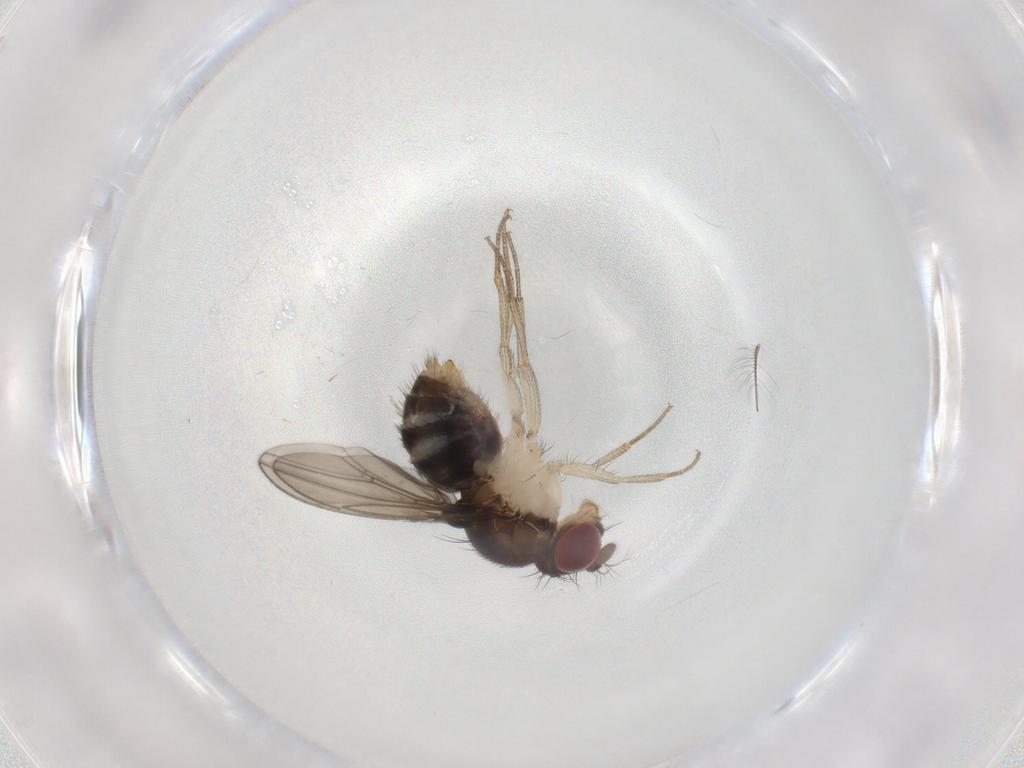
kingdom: Animalia
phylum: Arthropoda
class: Insecta
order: Diptera
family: Drosophilidae
